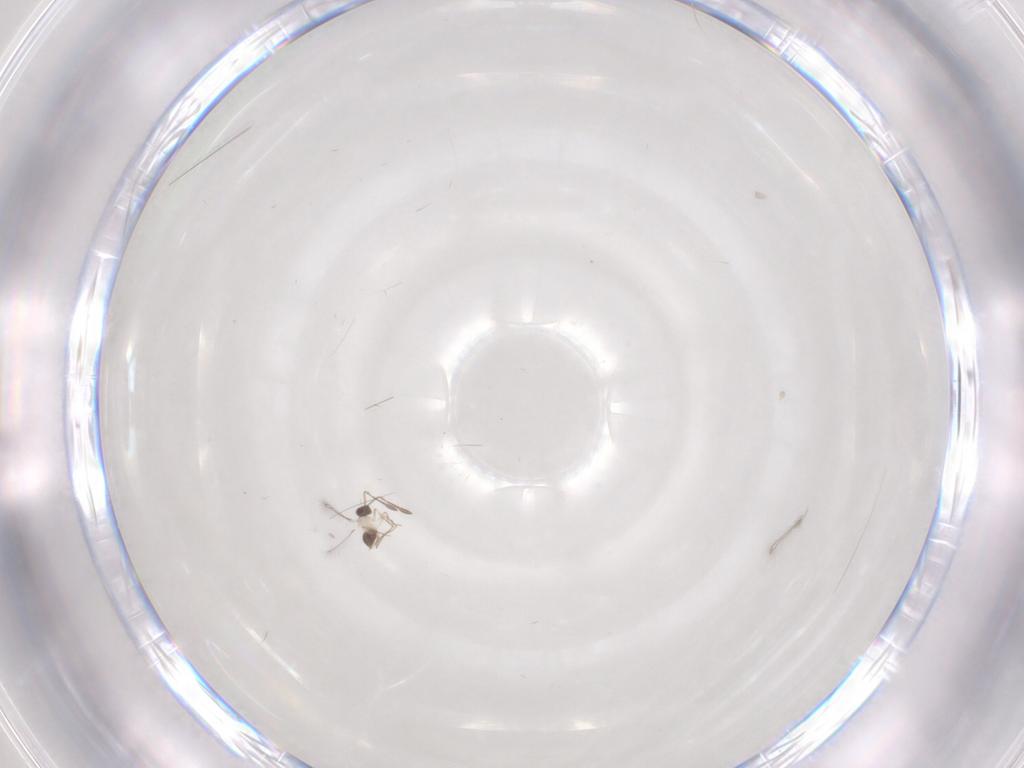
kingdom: Animalia
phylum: Arthropoda
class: Insecta
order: Hymenoptera
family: Mymaridae
